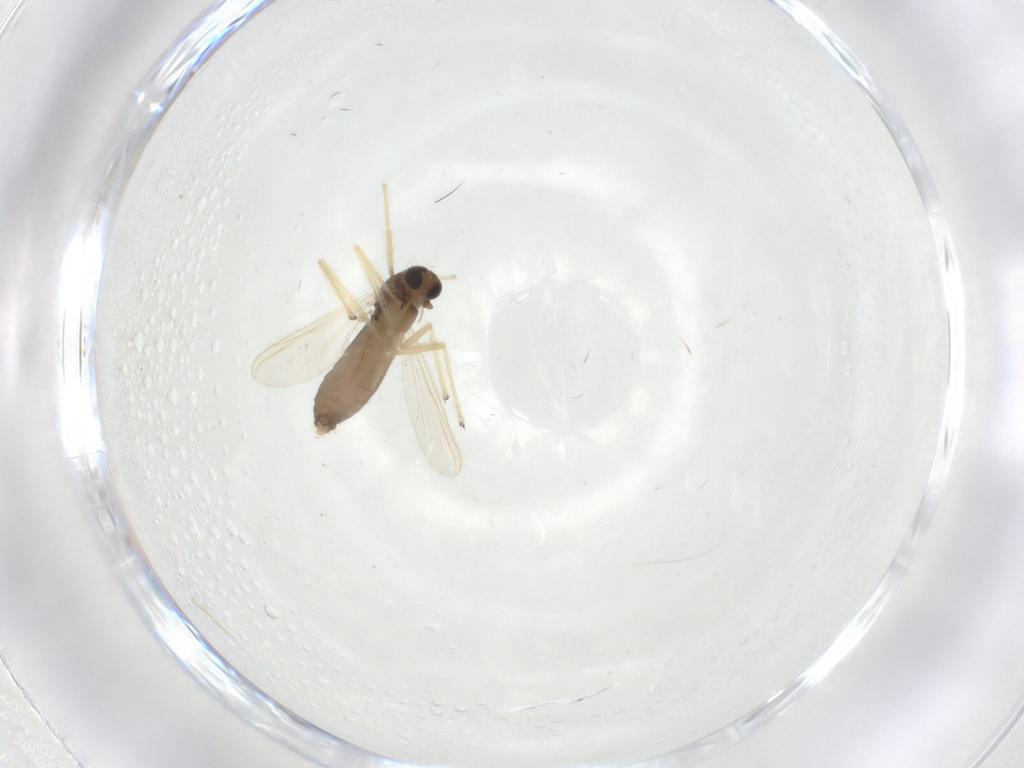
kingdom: Animalia
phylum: Arthropoda
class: Insecta
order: Diptera
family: Chironomidae
